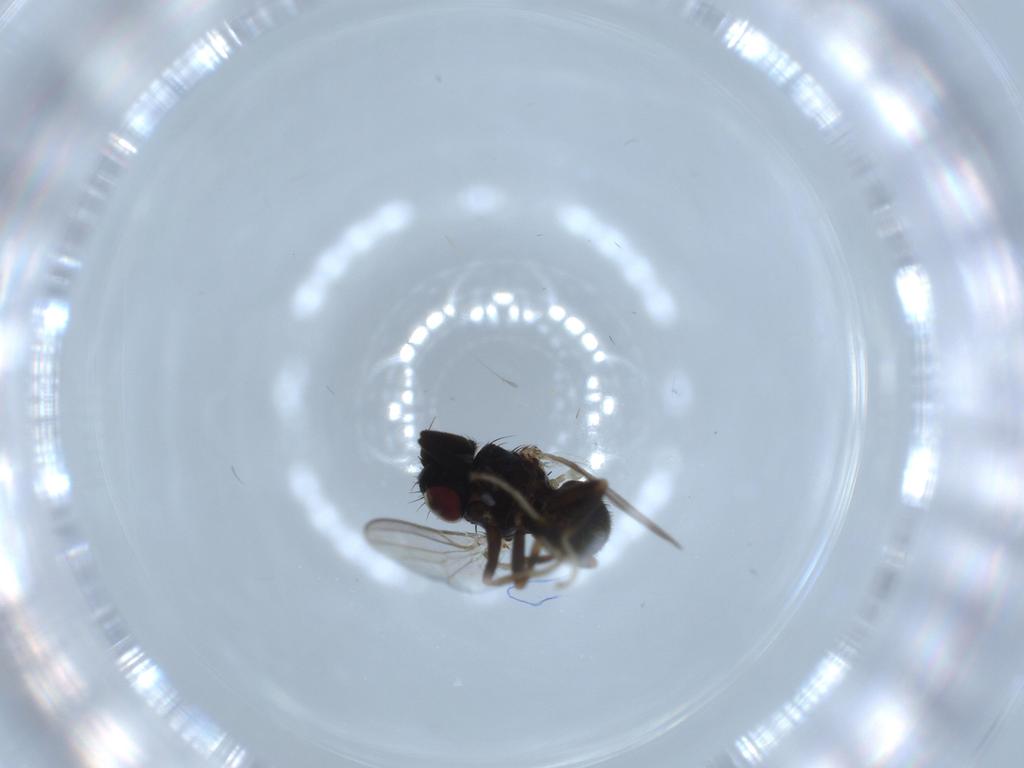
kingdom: Animalia
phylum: Arthropoda
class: Insecta
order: Diptera
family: Milichiidae
